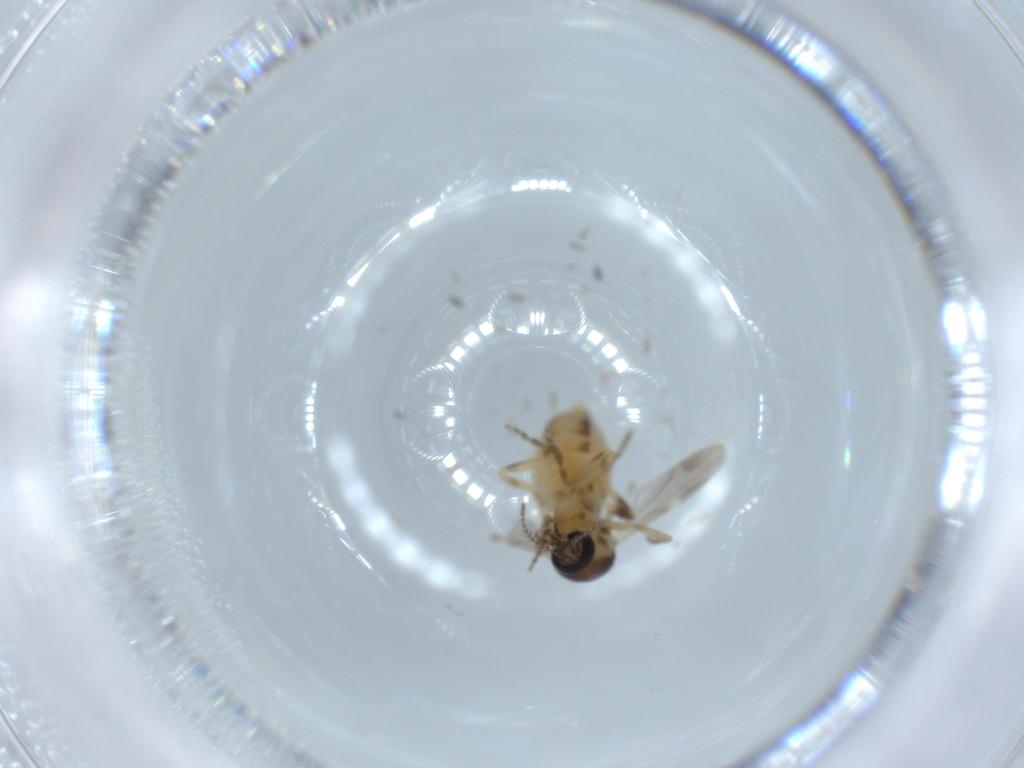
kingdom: Animalia
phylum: Arthropoda
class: Insecta
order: Diptera
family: Ceratopogonidae
